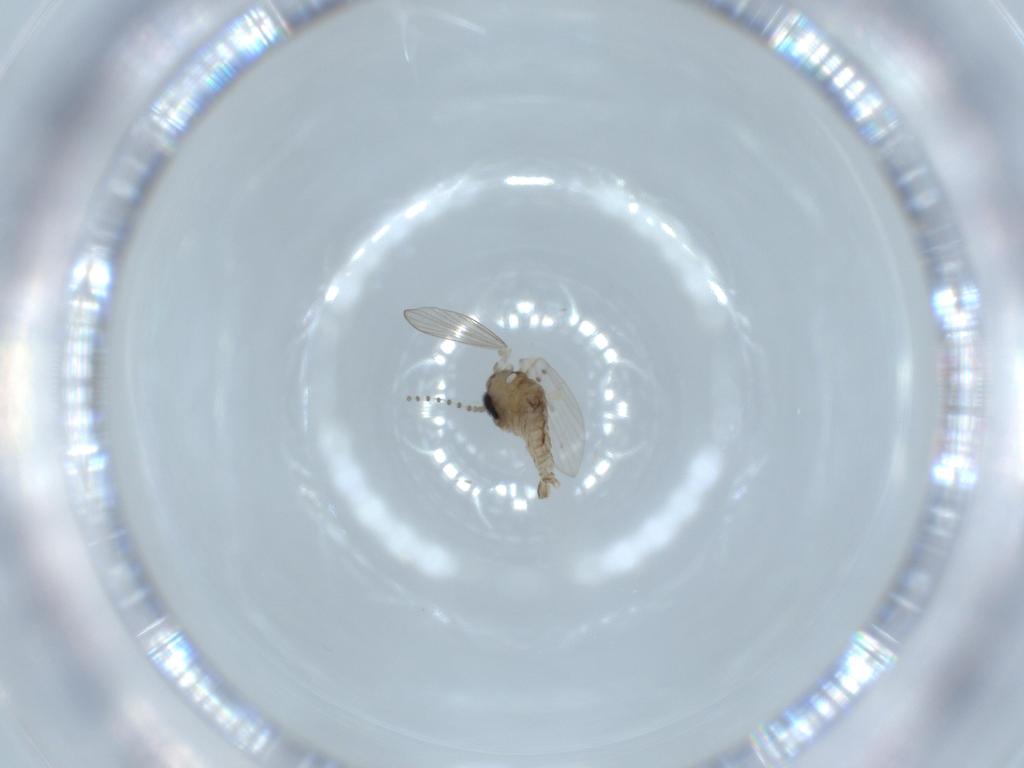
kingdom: Animalia
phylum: Arthropoda
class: Insecta
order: Diptera
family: Psychodidae
